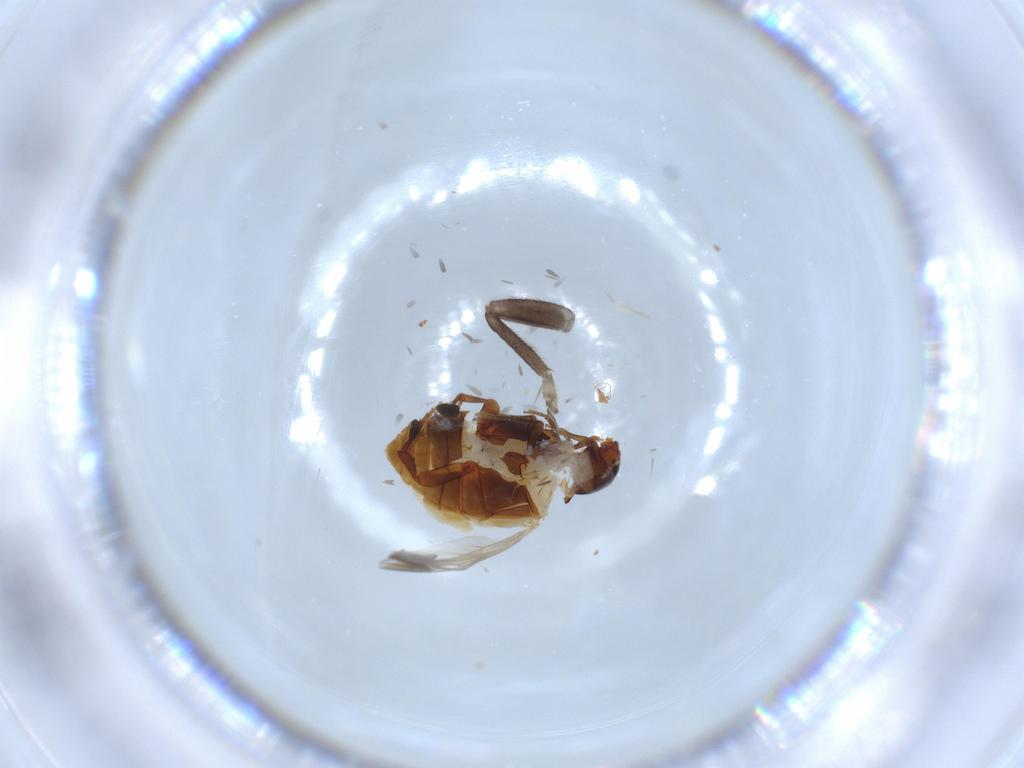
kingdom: Animalia
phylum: Arthropoda
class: Insecta
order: Coleoptera
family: Melandryidae
